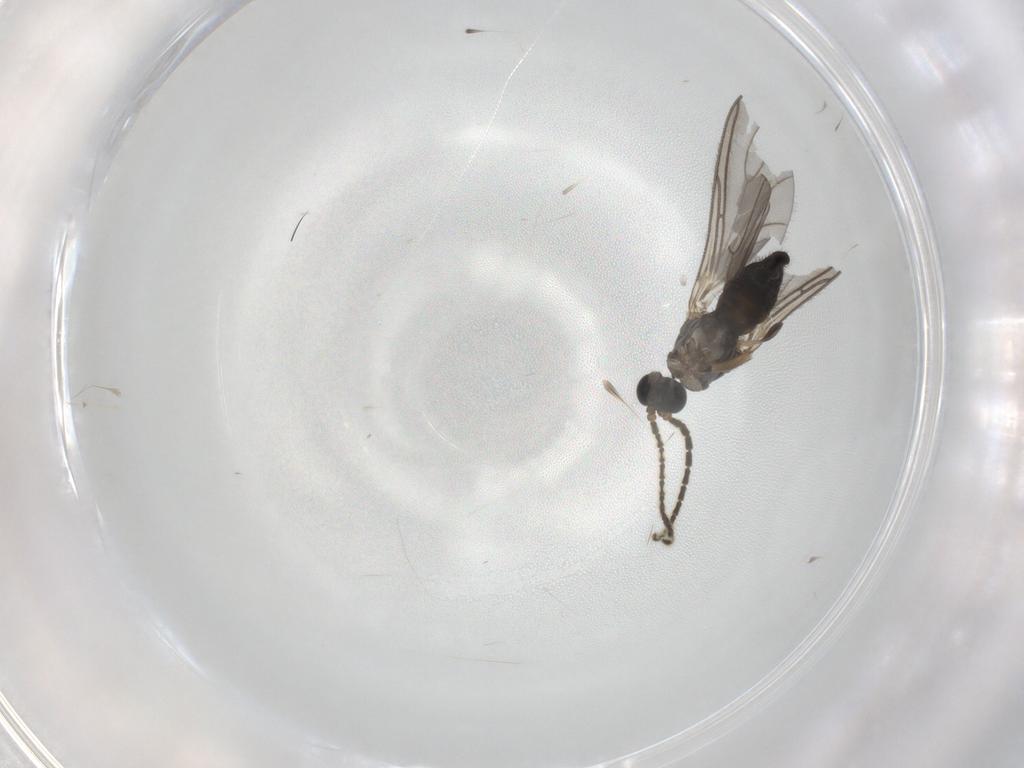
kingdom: Animalia
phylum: Arthropoda
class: Insecta
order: Diptera
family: Sciaridae
